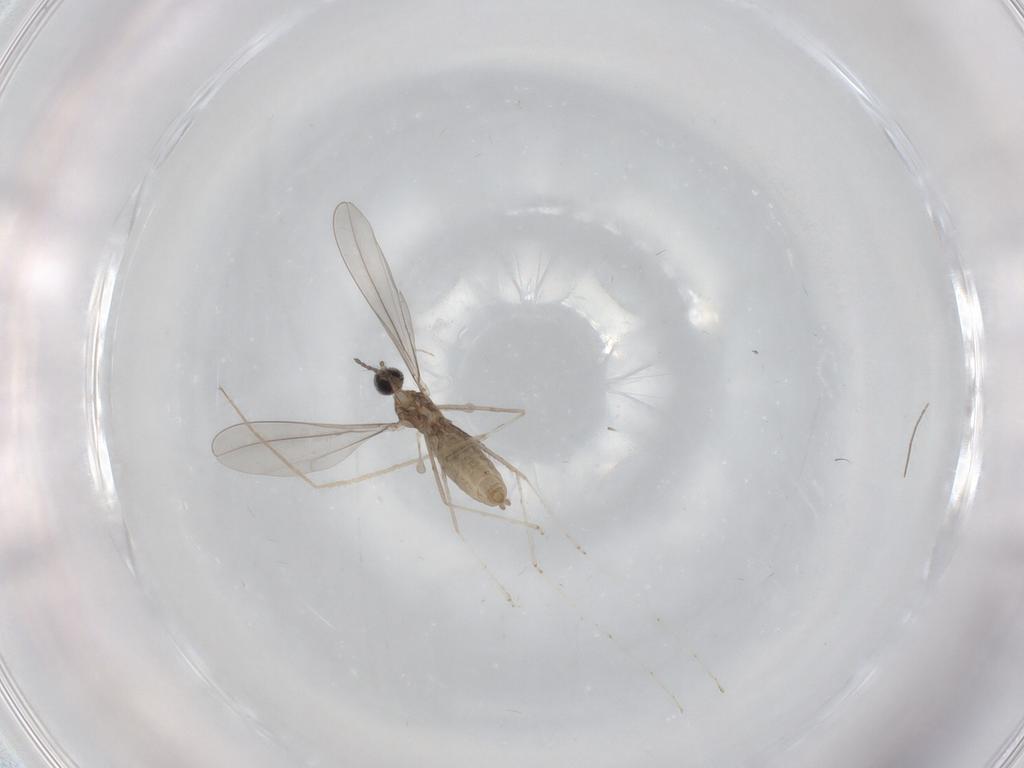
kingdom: Animalia
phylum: Arthropoda
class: Insecta
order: Diptera
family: Cecidomyiidae
